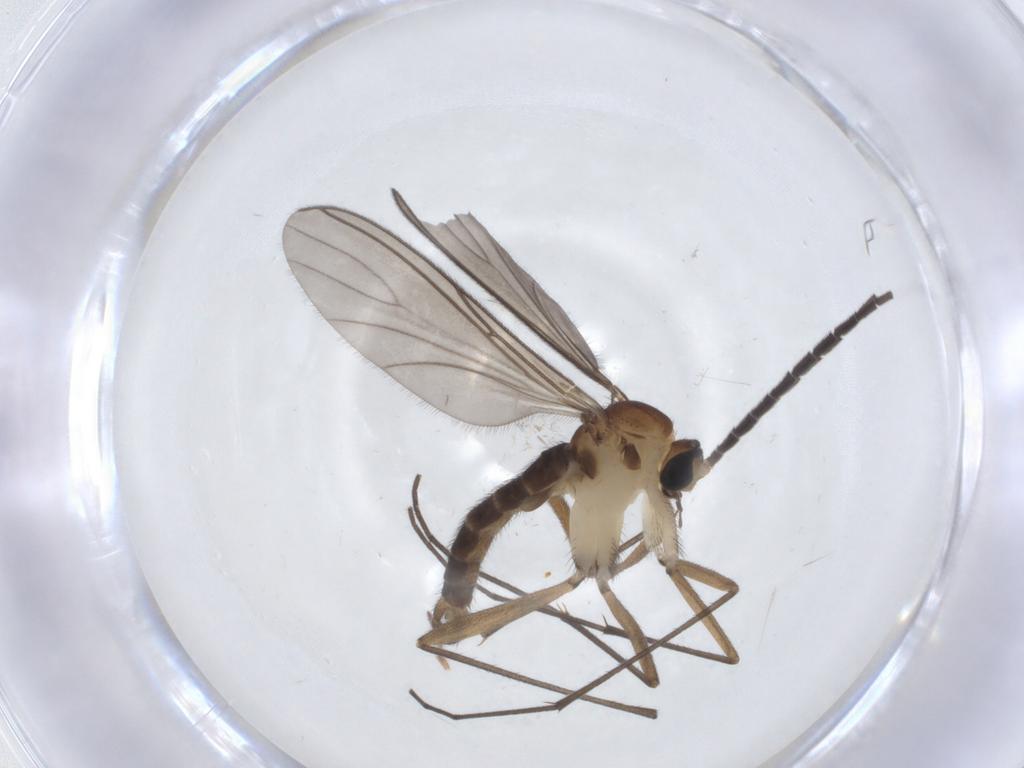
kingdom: Animalia
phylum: Arthropoda
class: Insecta
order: Diptera
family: Sciaridae
